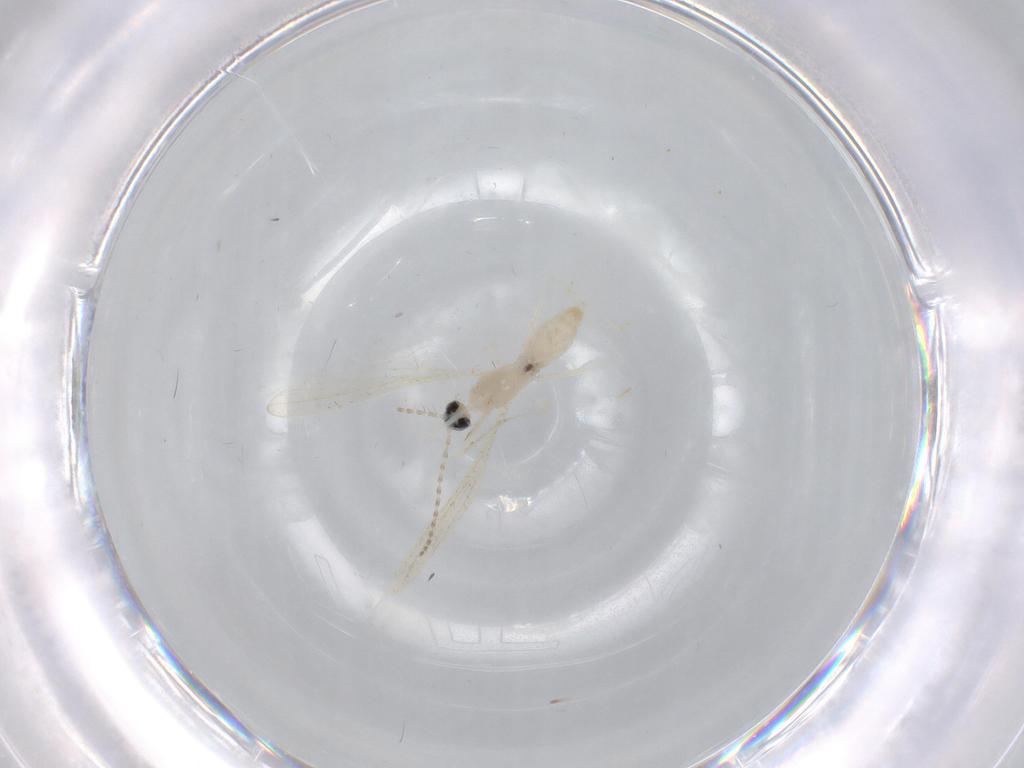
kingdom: Animalia
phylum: Arthropoda
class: Insecta
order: Diptera
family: Cecidomyiidae
